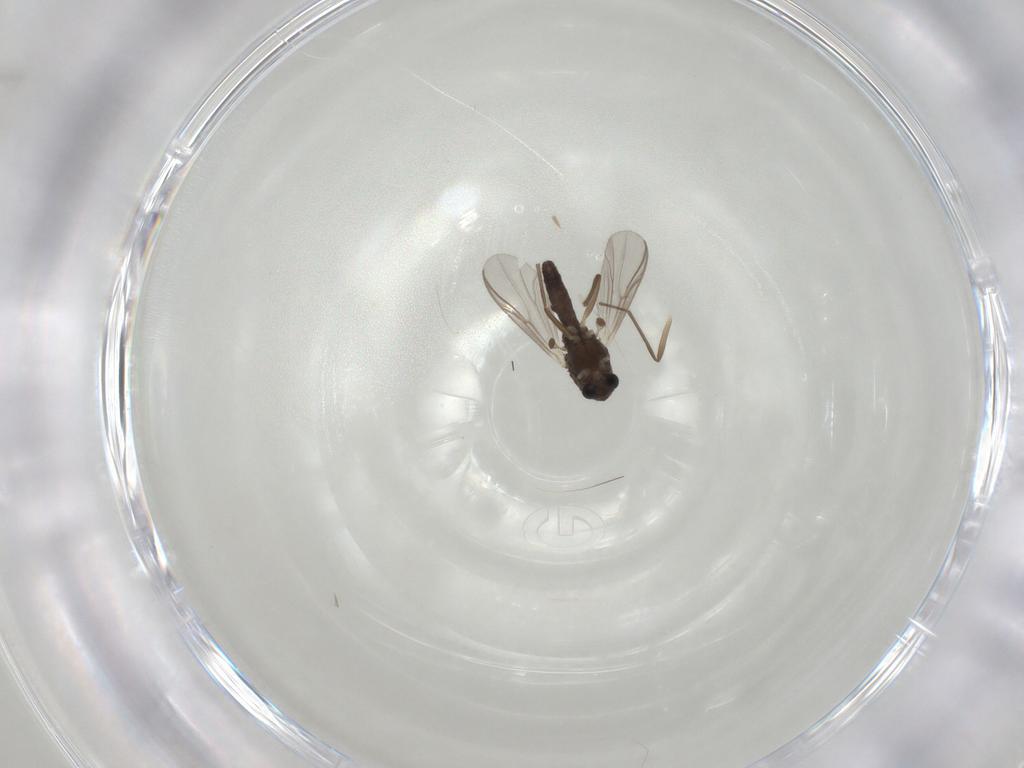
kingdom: Animalia
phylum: Arthropoda
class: Insecta
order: Diptera
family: Chironomidae
